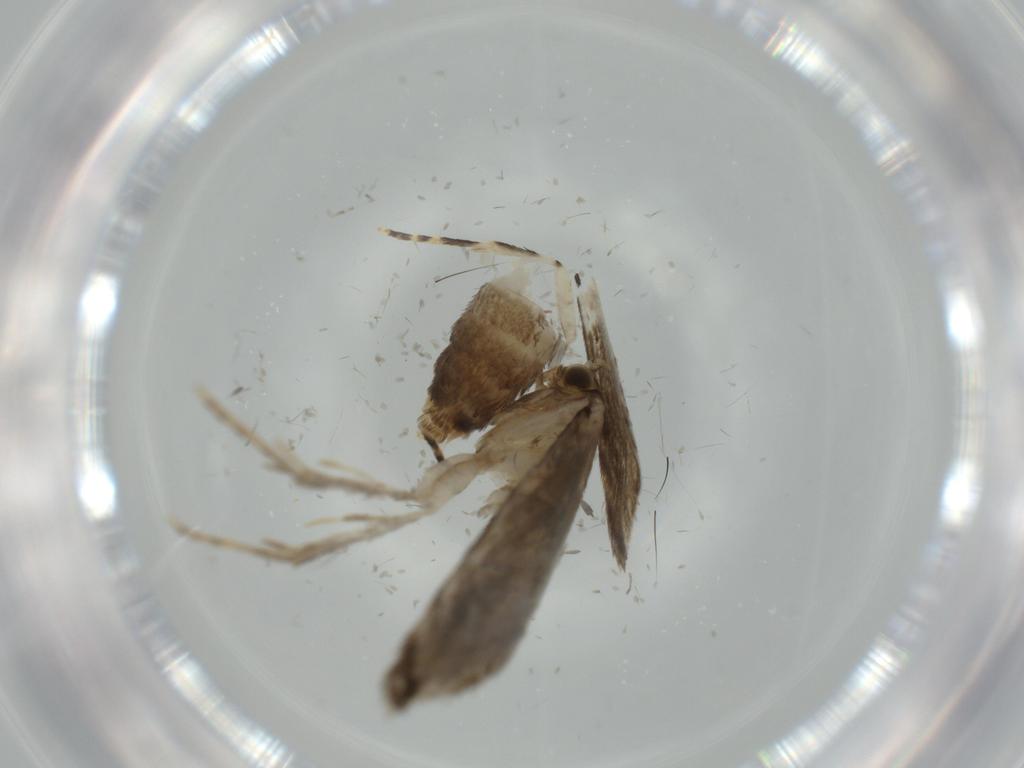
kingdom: Animalia
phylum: Arthropoda
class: Insecta
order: Lepidoptera
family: Tineidae
